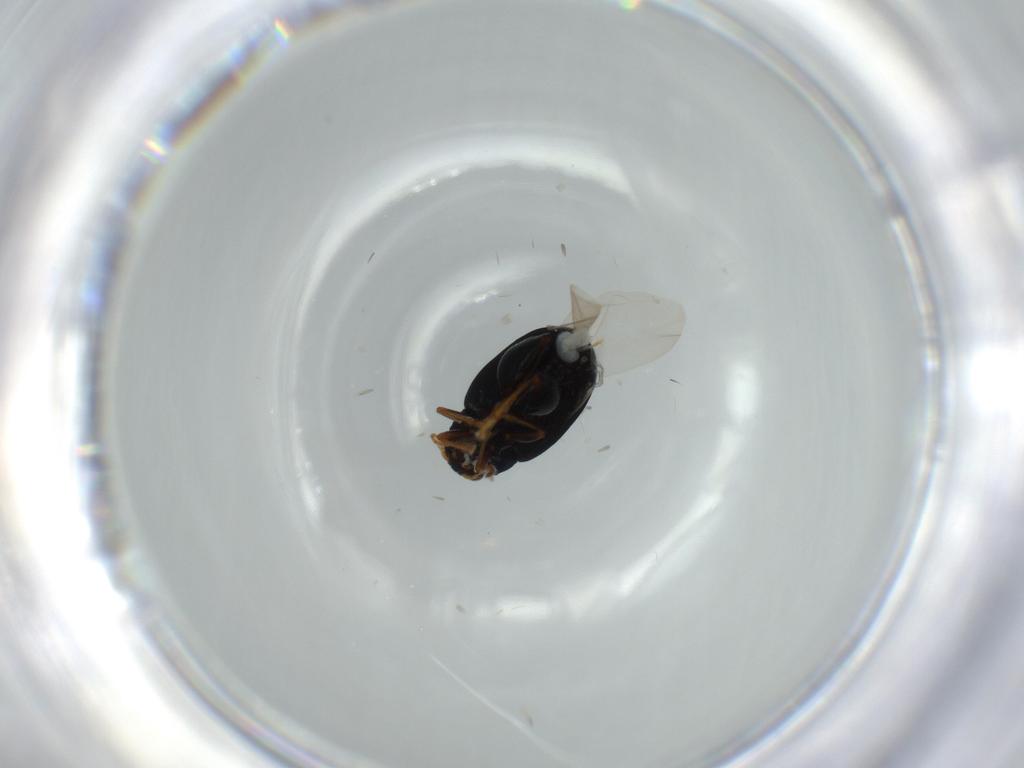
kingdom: Animalia
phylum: Arthropoda
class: Insecta
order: Coleoptera
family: Chrysomelidae
